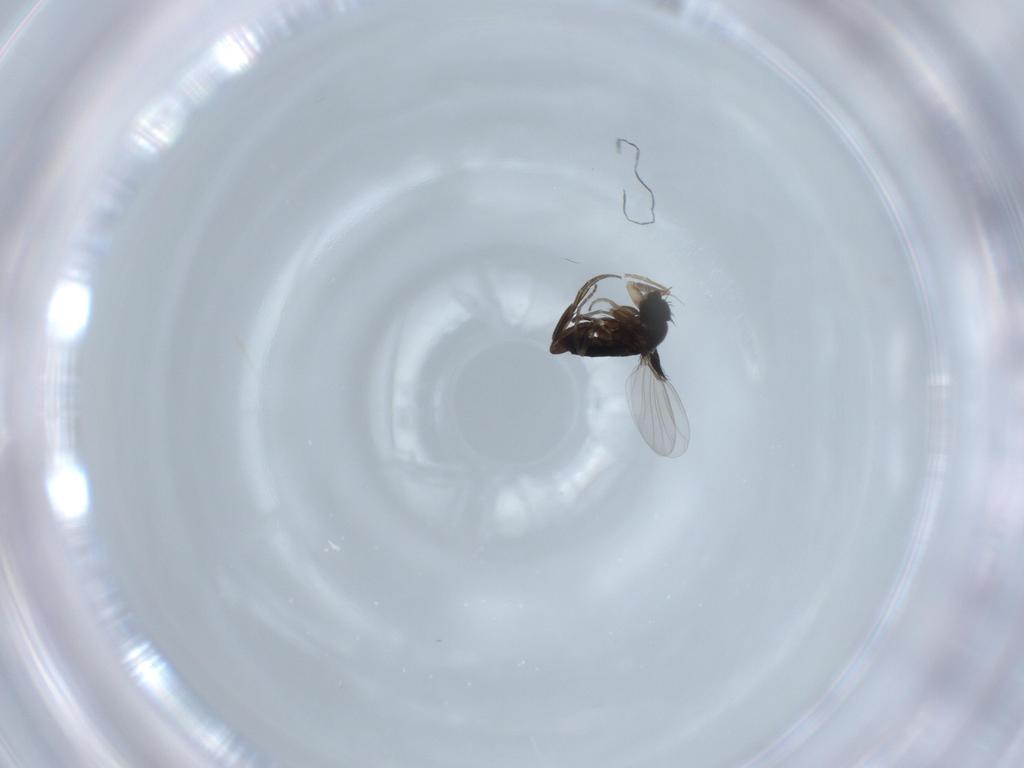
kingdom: Animalia
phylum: Arthropoda
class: Insecta
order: Diptera
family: Phoridae
